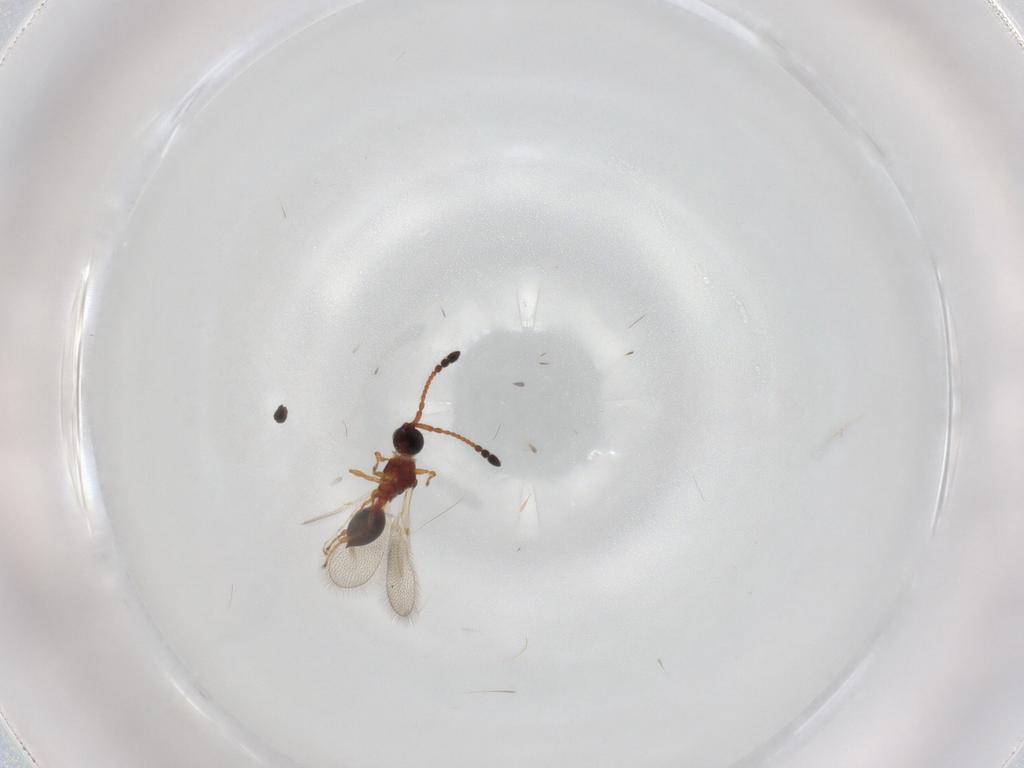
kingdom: Animalia
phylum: Arthropoda
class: Insecta
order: Hymenoptera
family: Diapriidae
